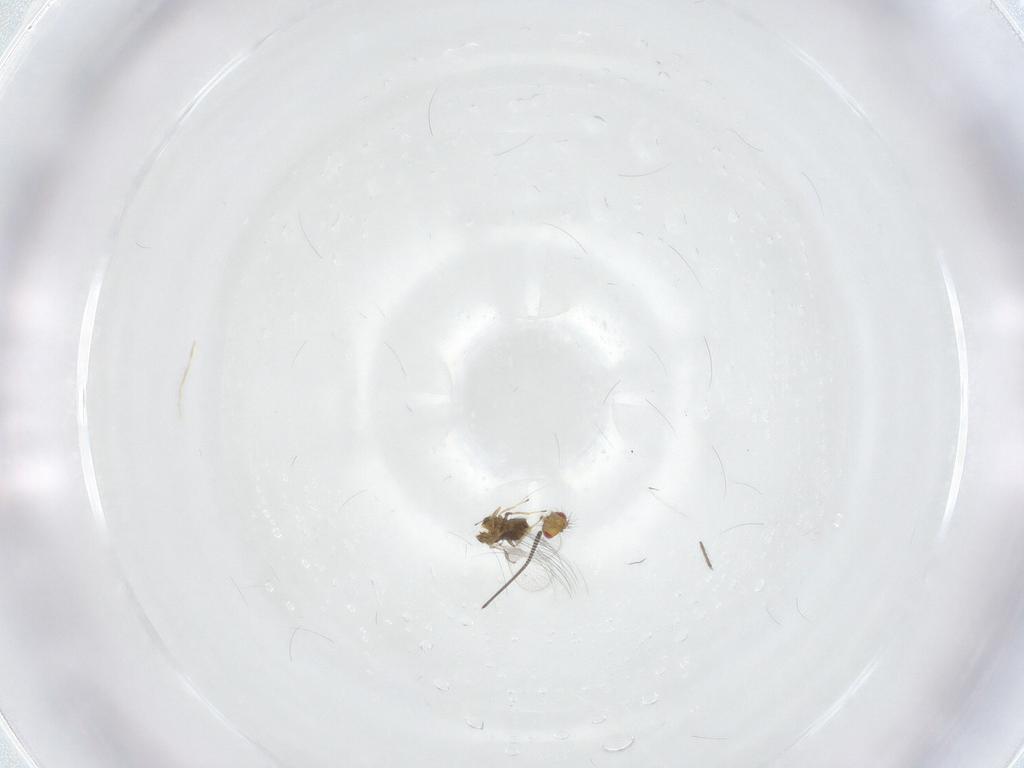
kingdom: Animalia
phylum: Arthropoda
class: Insecta
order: Hymenoptera
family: Trichogrammatidae
